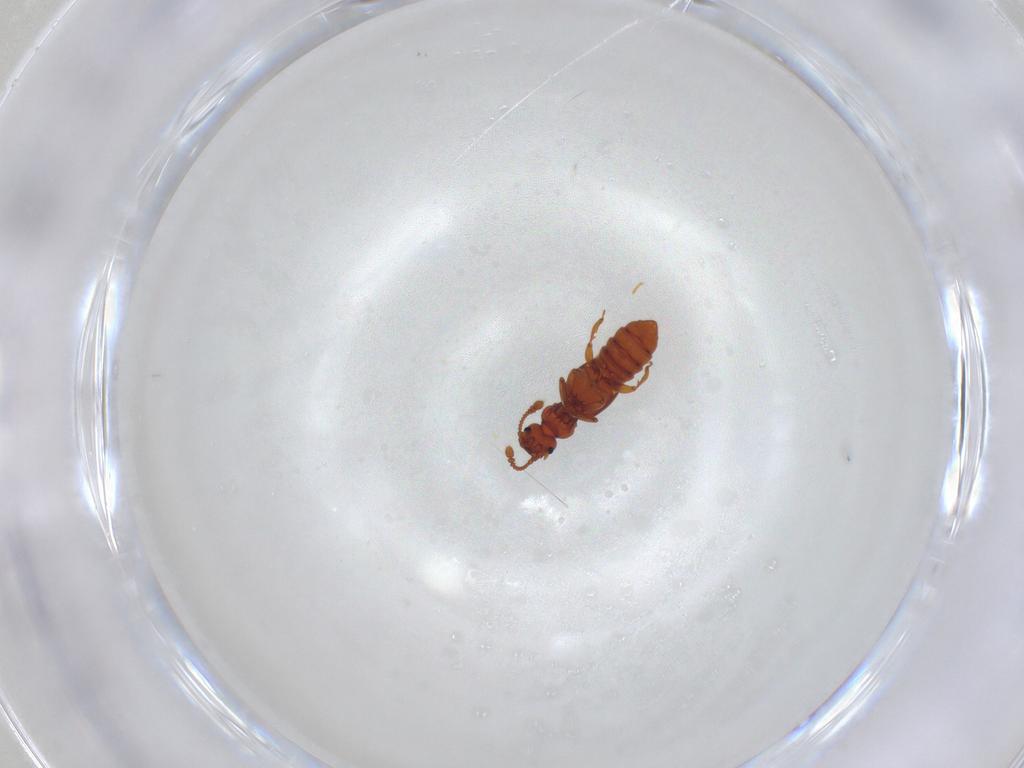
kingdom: Animalia
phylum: Arthropoda
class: Insecta
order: Coleoptera
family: Staphylinidae
